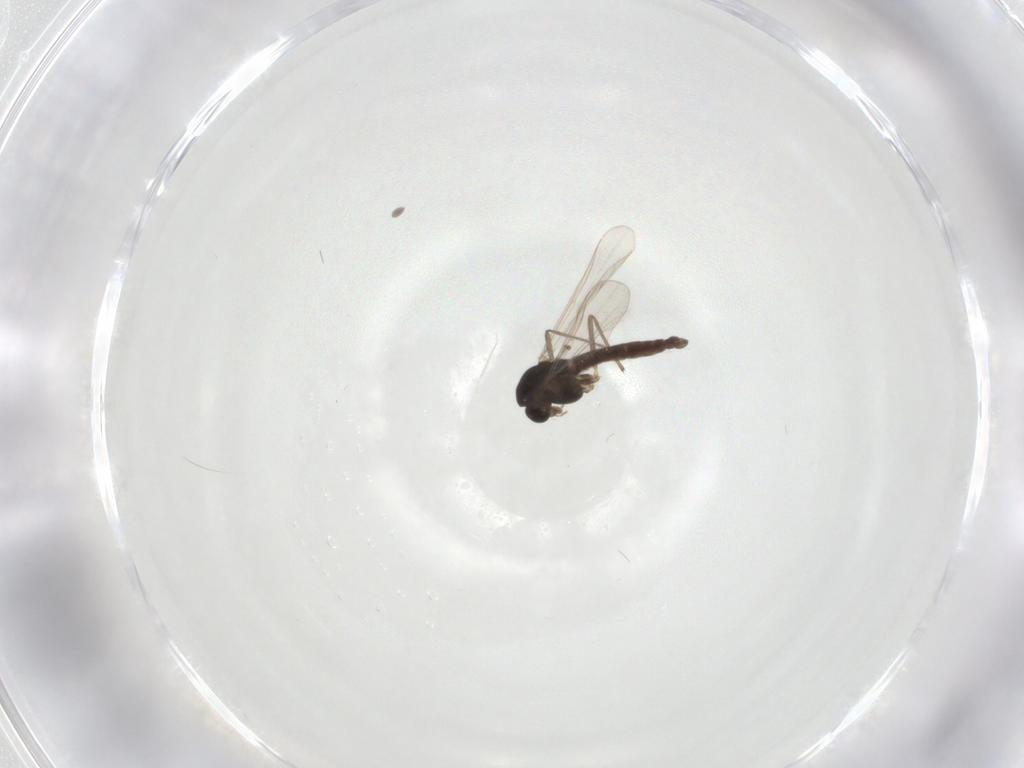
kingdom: Animalia
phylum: Arthropoda
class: Insecta
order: Diptera
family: Chironomidae
